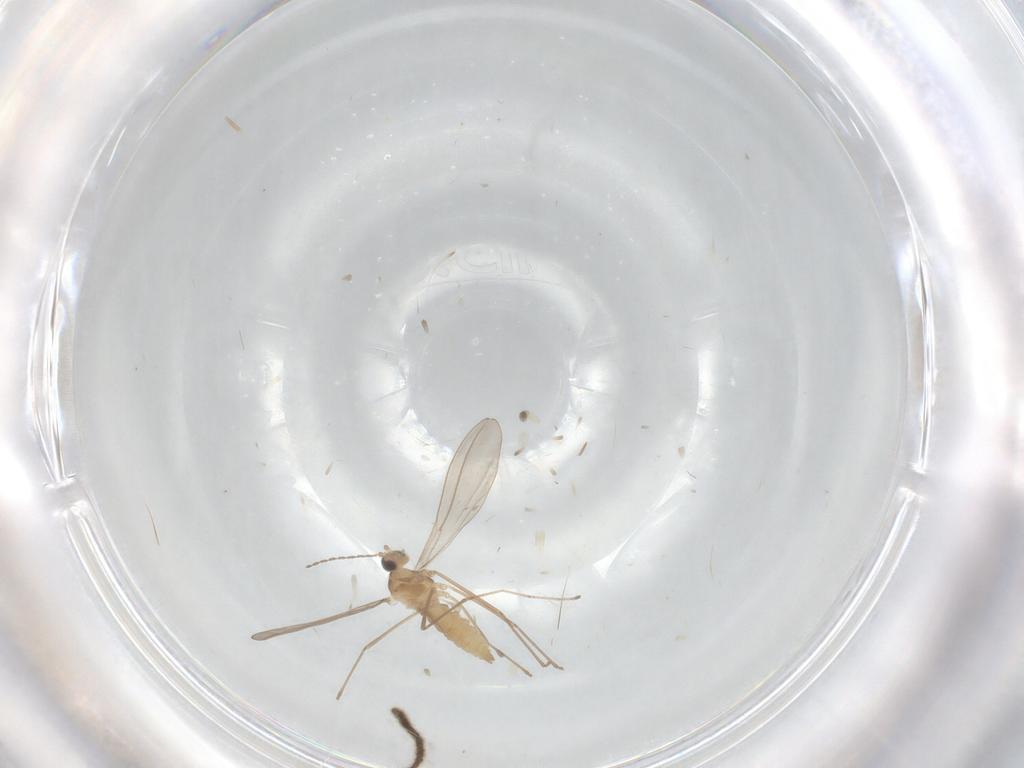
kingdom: Animalia
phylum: Arthropoda
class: Insecta
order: Diptera
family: Cecidomyiidae
